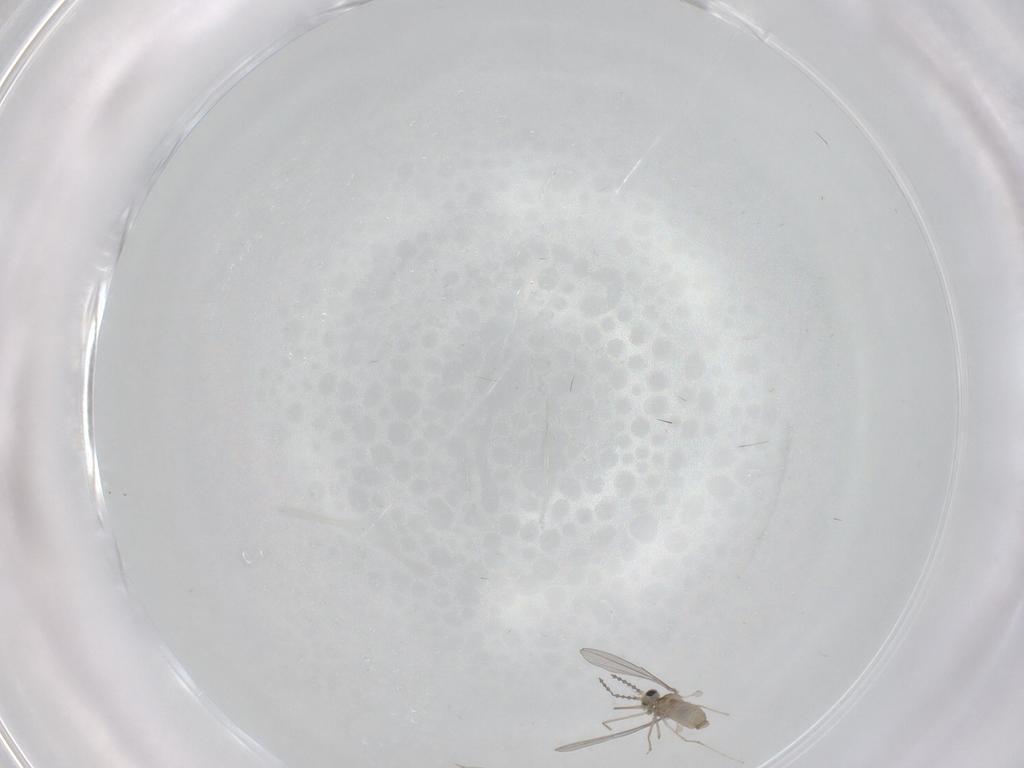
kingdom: Animalia
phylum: Arthropoda
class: Insecta
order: Diptera
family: Cecidomyiidae
